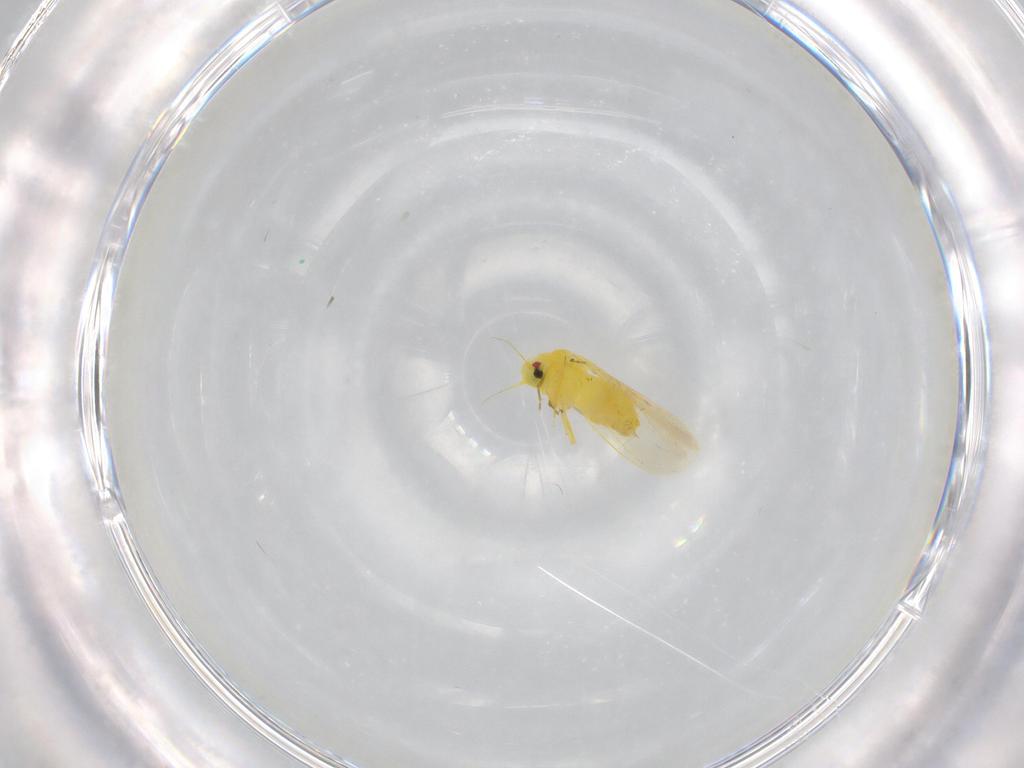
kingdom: Animalia
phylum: Arthropoda
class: Insecta
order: Hemiptera
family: Aleyrodidae
